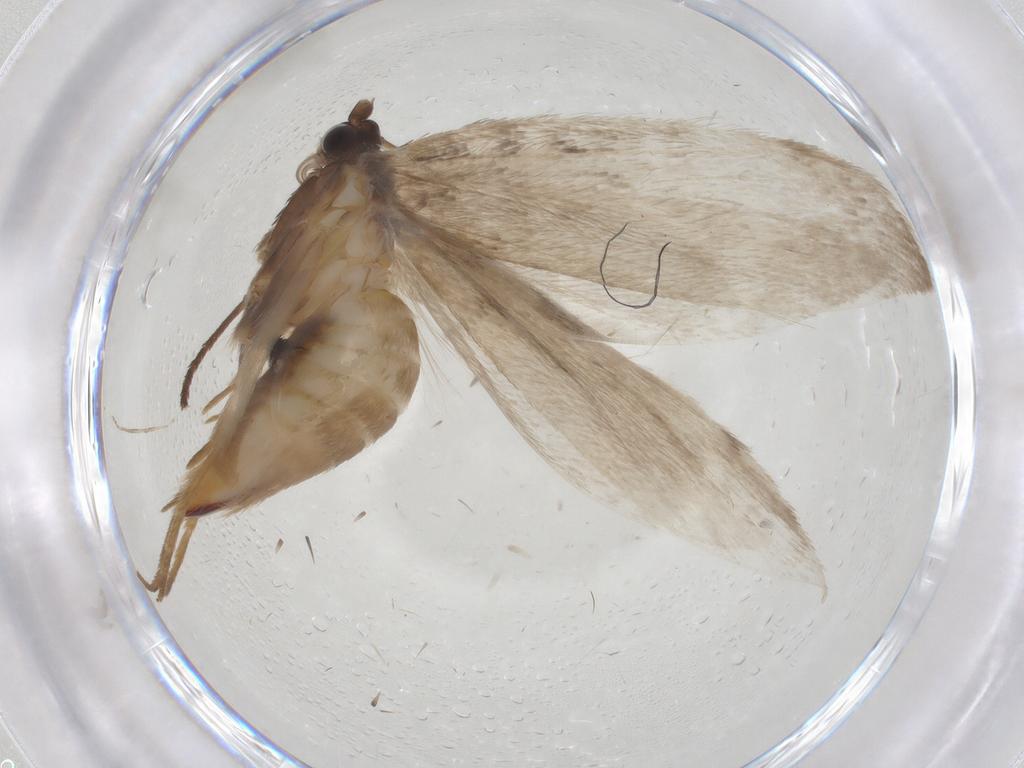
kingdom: Animalia
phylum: Arthropoda
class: Insecta
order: Lepidoptera
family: Adelidae
